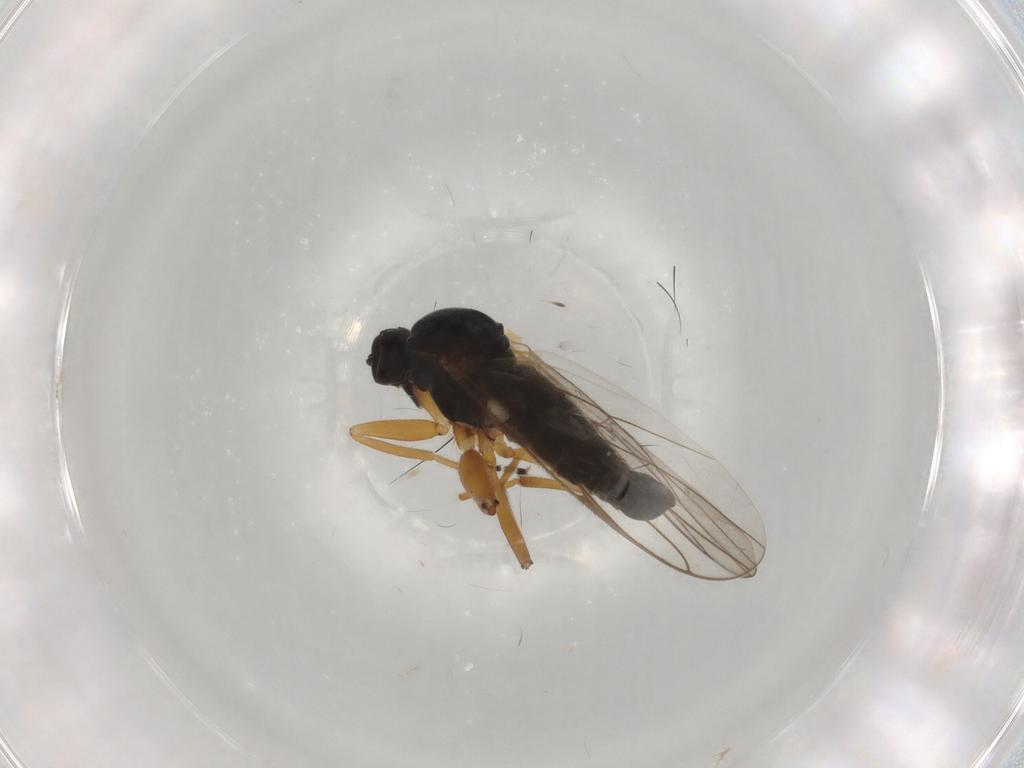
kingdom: Animalia
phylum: Arthropoda
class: Insecta
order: Diptera
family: Hybotidae
